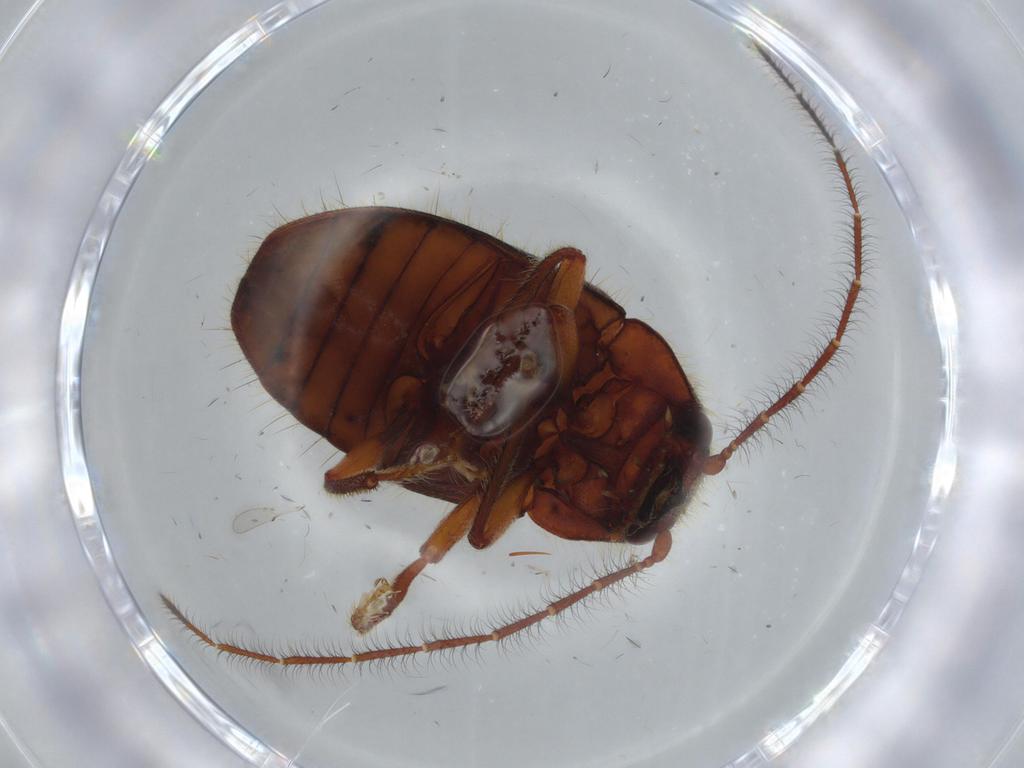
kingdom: Animalia
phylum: Arthropoda
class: Insecta
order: Coleoptera
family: Artematopodidae
